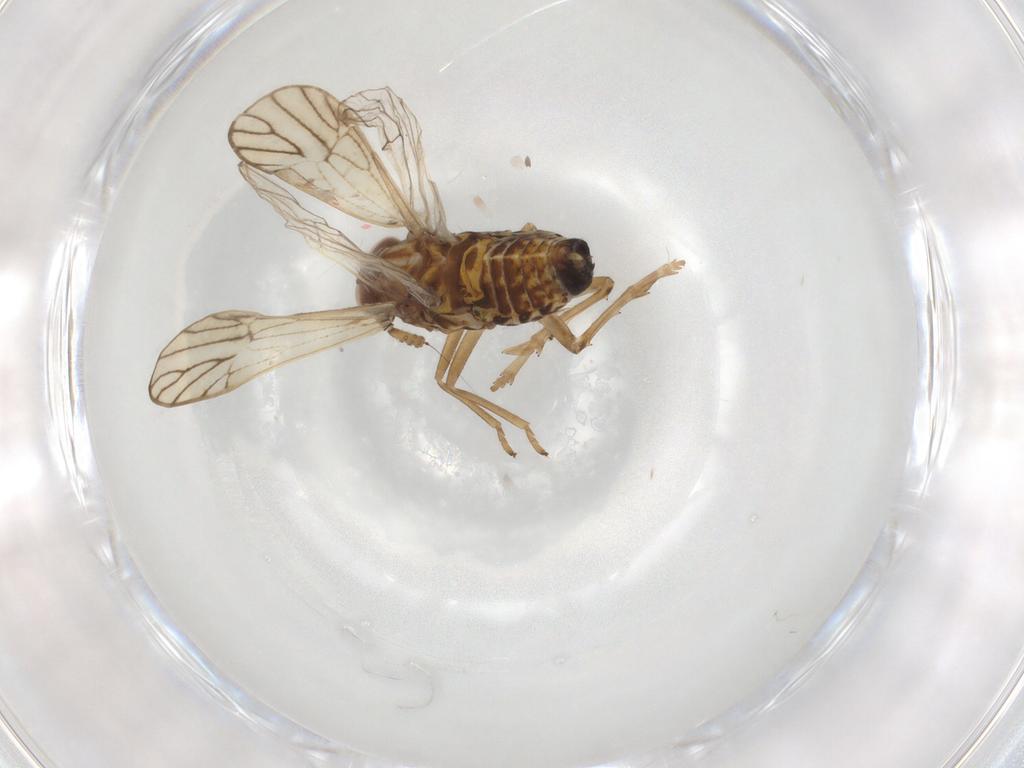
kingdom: Animalia
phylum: Arthropoda
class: Insecta
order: Hemiptera
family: Delphacidae
